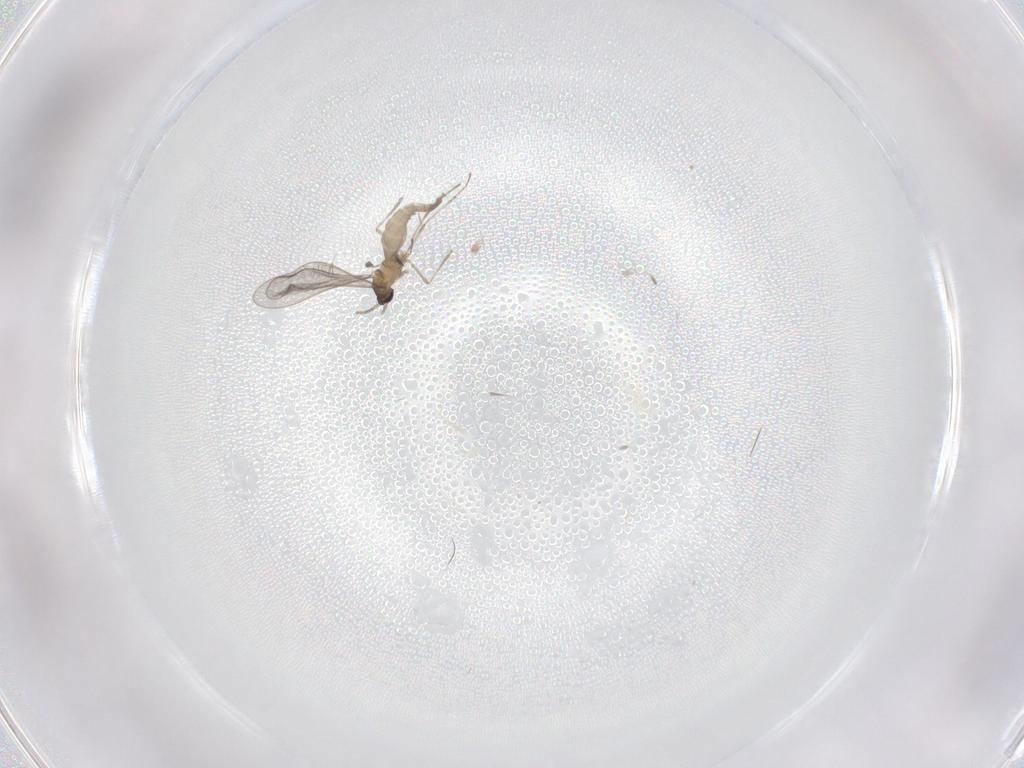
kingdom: Animalia
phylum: Arthropoda
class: Insecta
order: Diptera
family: Cecidomyiidae
